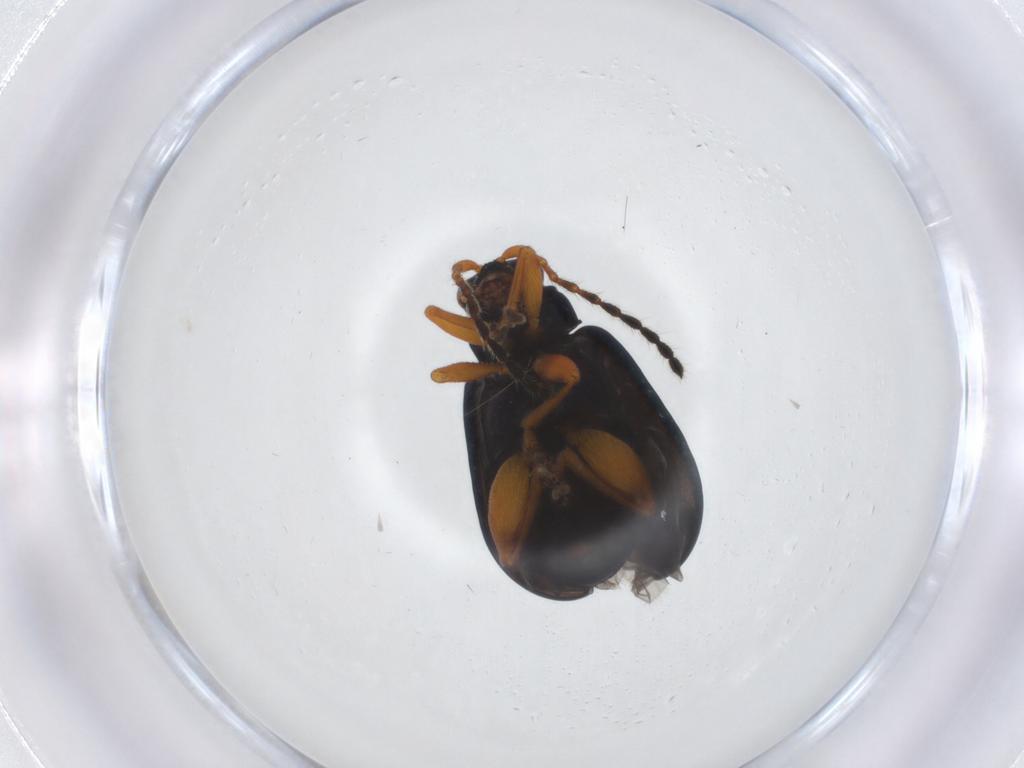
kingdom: Animalia
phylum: Arthropoda
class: Insecta
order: Coleoptera
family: Chrysomelidae
